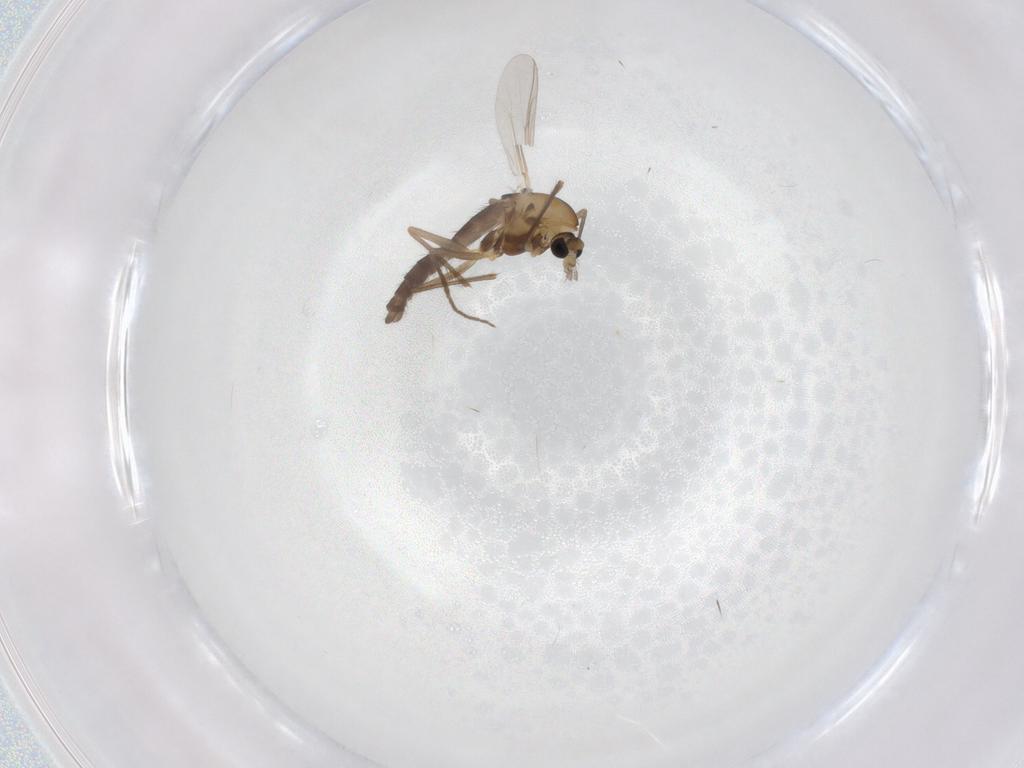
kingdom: Animalia
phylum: Arthropoda
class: Insecta
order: Diptera
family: Chironomidae
